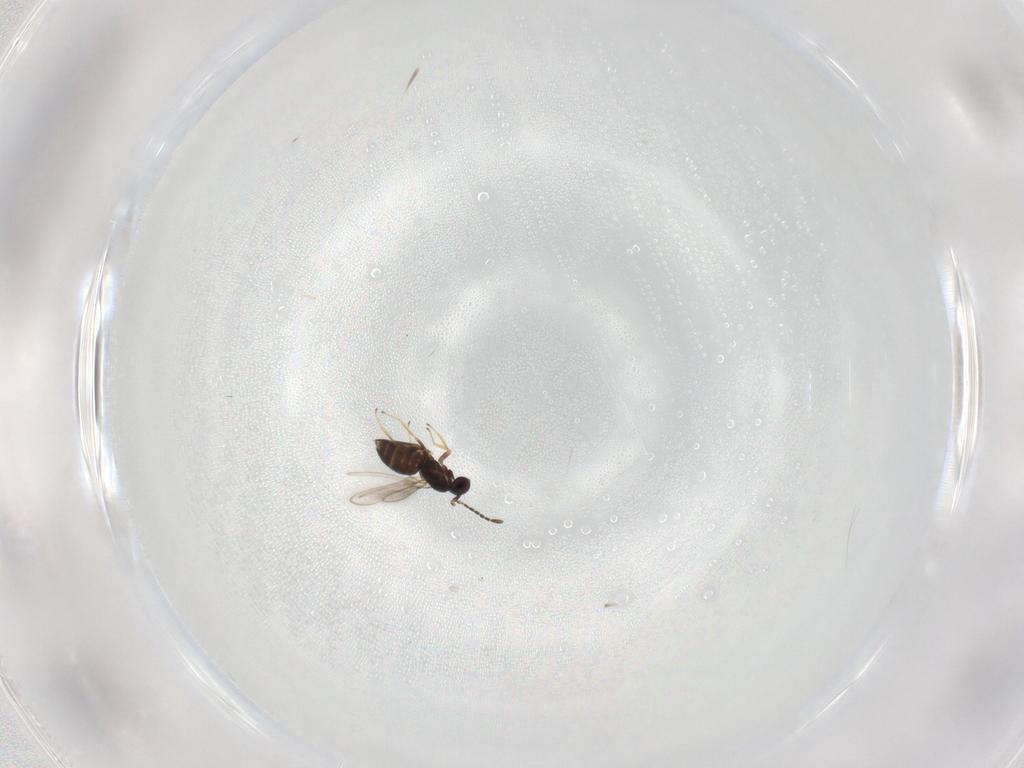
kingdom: Animalia
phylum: Arthropoda
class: Insecta
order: Hymenoptera
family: Mymaridae
